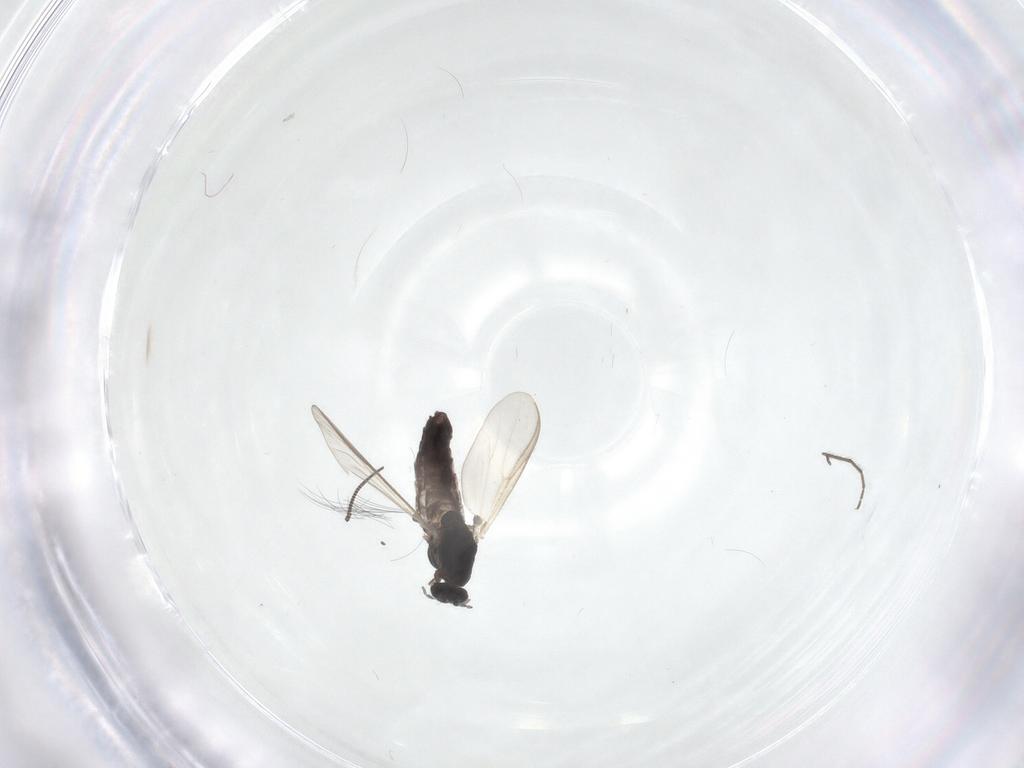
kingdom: Animalia
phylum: Arthropoda
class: Insecta
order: Diptera
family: Chironomidae
